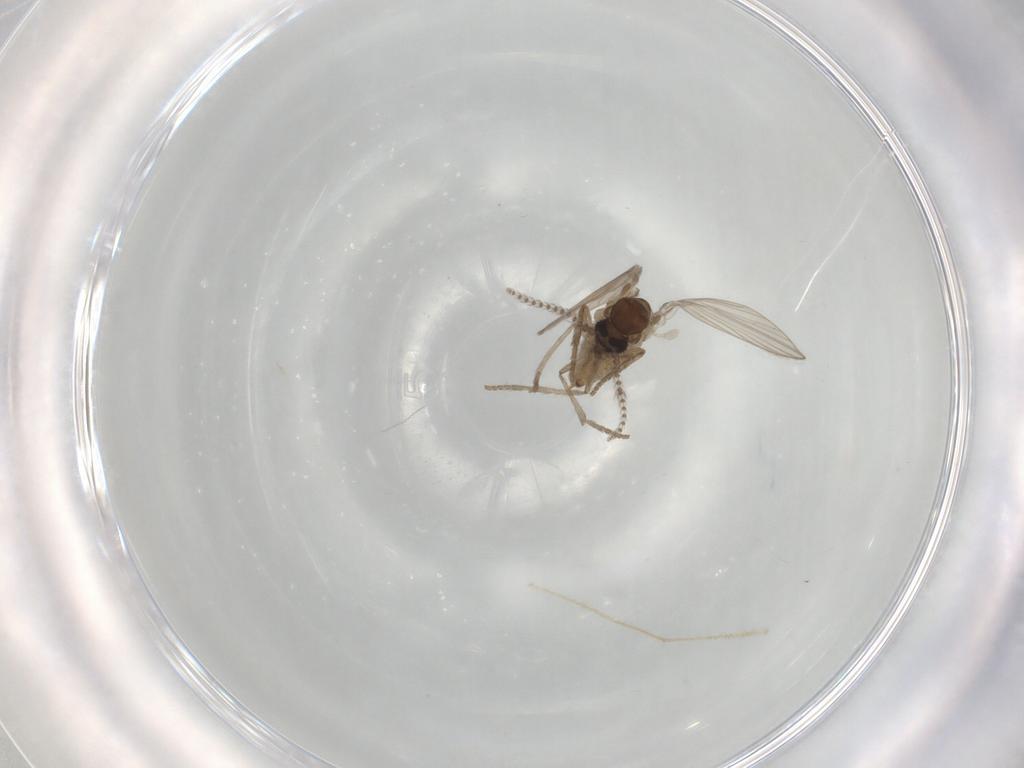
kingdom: Animalia
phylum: Arthropoda
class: Insecta
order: Diptera
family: Psychodidae
